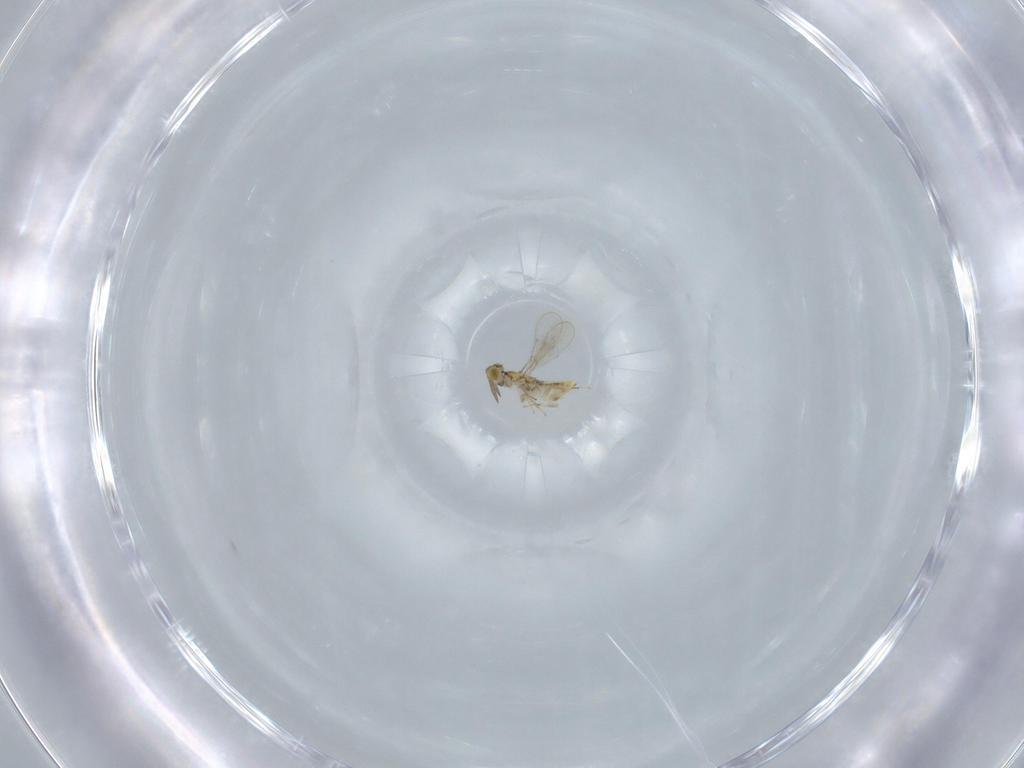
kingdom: Animalia
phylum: Arthropoda
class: Insecta
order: Hymenoptera
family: Aphelinidae
